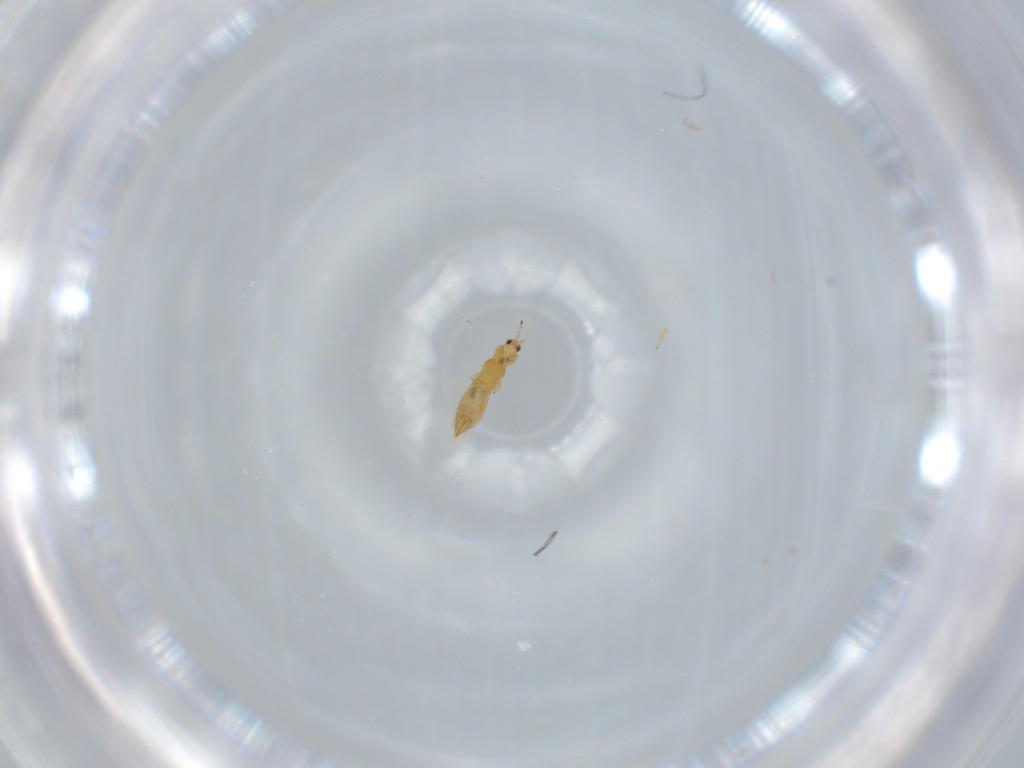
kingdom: Animalia
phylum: Arthropoda
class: Insecta
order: Thysanoptera
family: Thripidae
